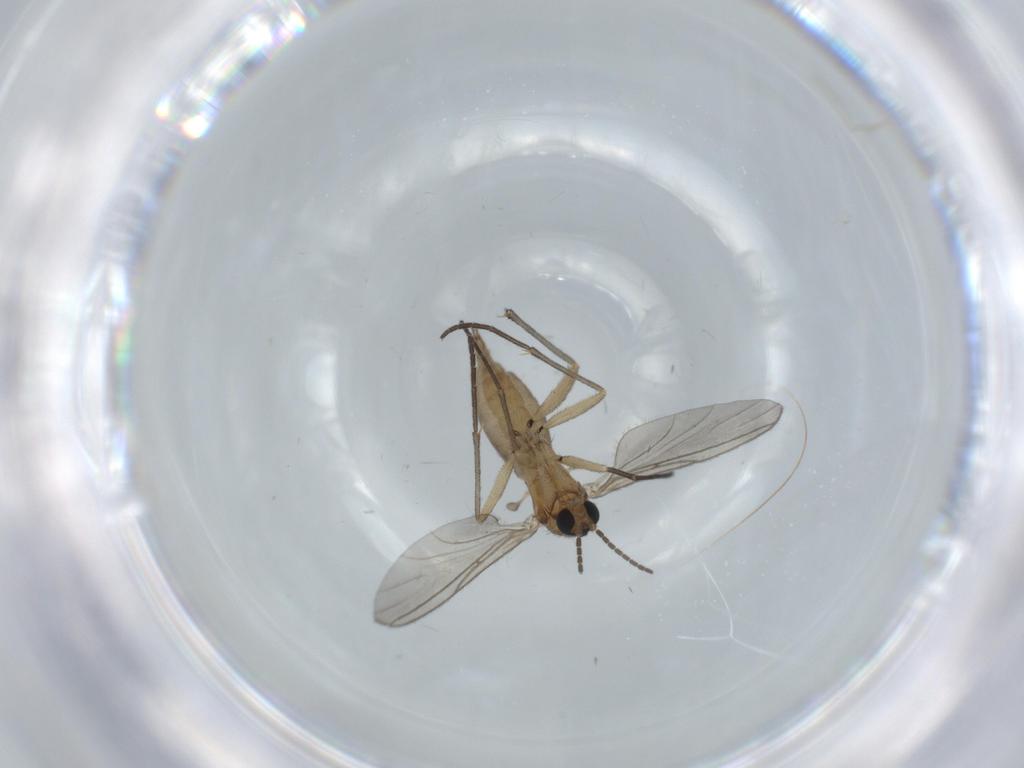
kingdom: Animalia
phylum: Arthropoda
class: Insecta
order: Diptera
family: Sciaridae
